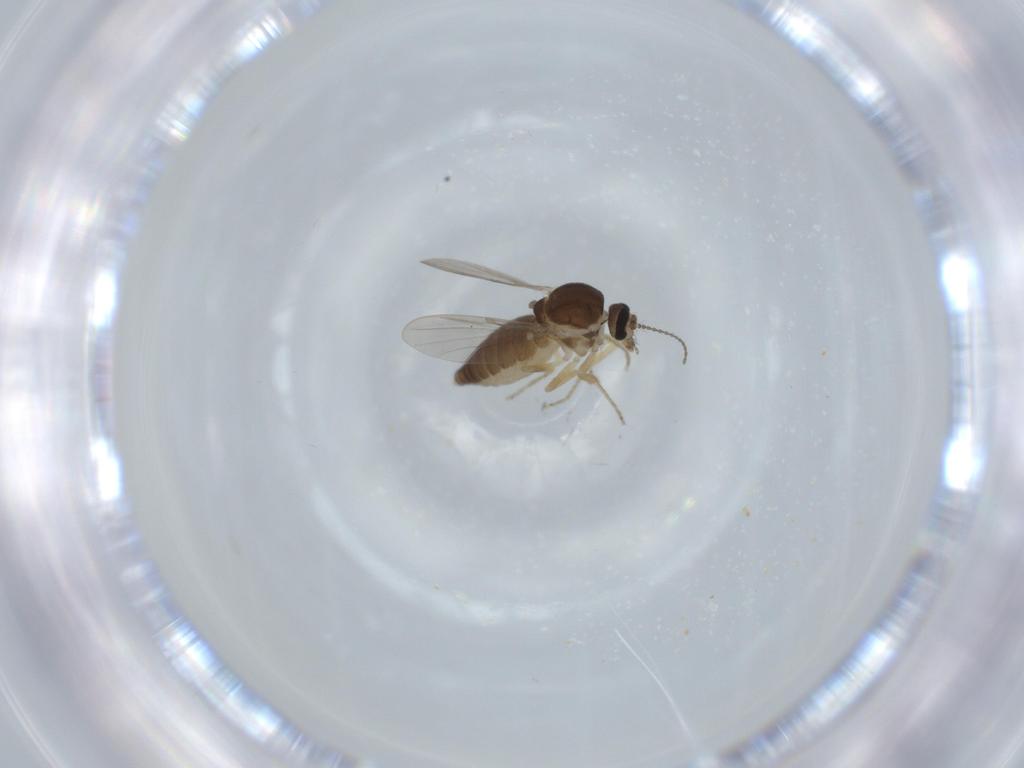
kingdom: Animalia
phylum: Arthropoda
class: Insecta
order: Diptera
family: Ceratopogonidae
